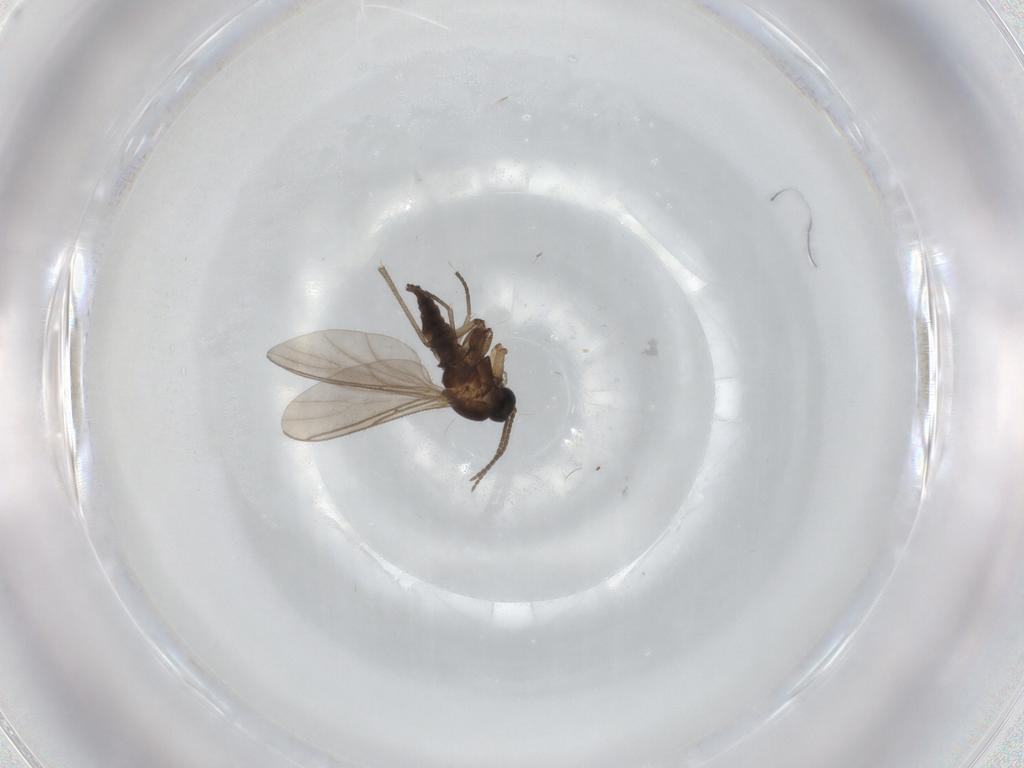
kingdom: Animalia
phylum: Arthropoda
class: Insecta
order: Diptera
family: Sciaridae
